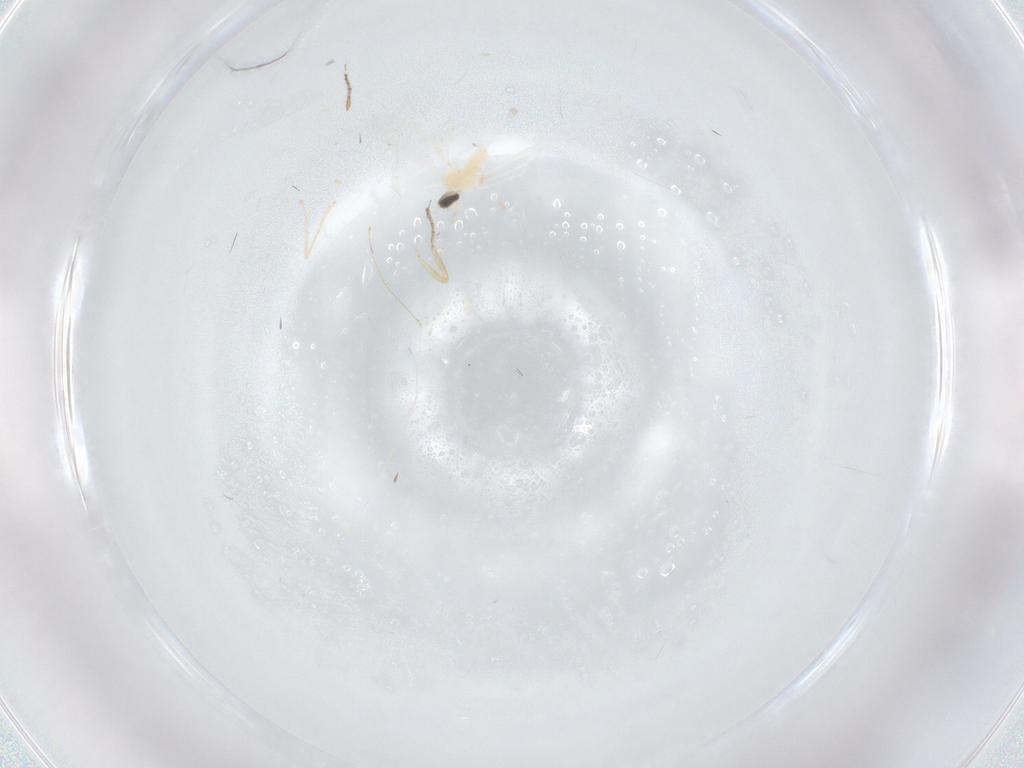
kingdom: Animalia
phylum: Arthropoda
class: Insecta
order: Diptera
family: Cecidomyiidae
